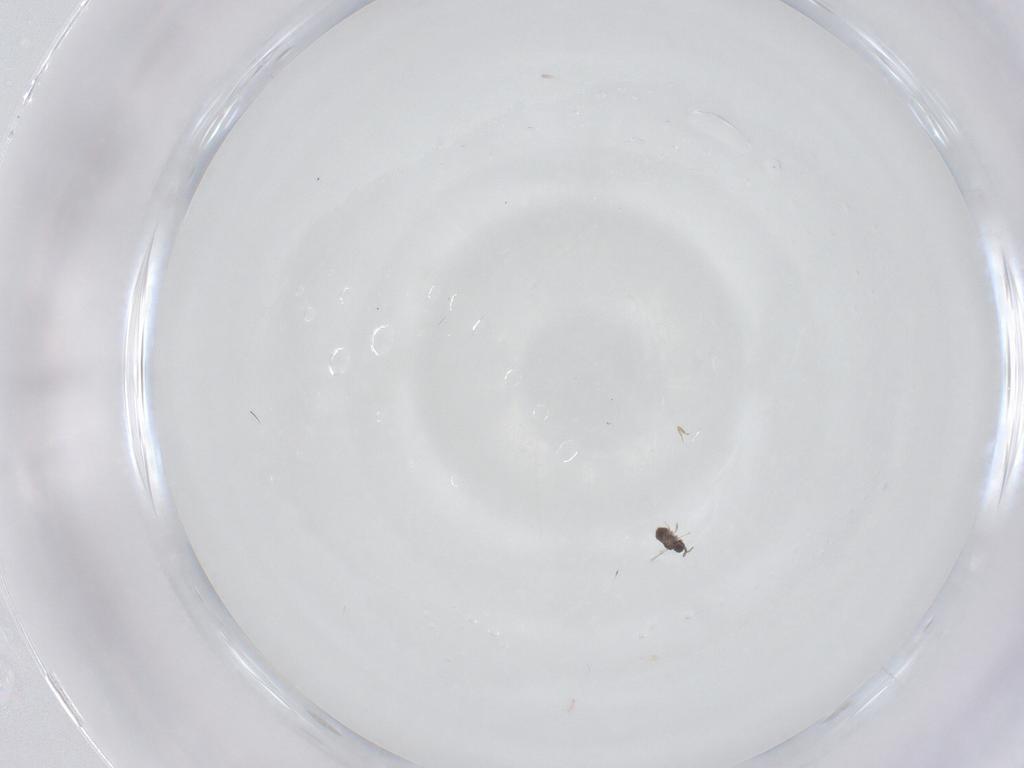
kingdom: Animalia
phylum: Arthropoda
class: Insecta
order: Hymenoptera
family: Mymaridae
